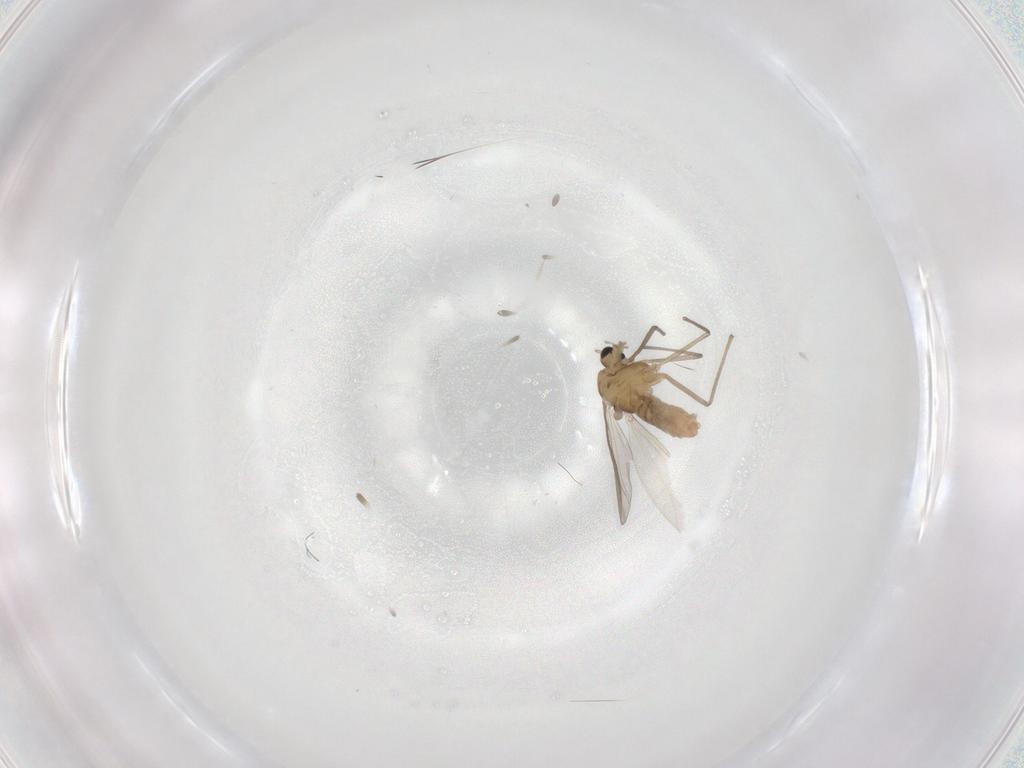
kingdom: Animalia
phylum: Arthropoda
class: Insecta
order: Diptera
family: Chironomidae
